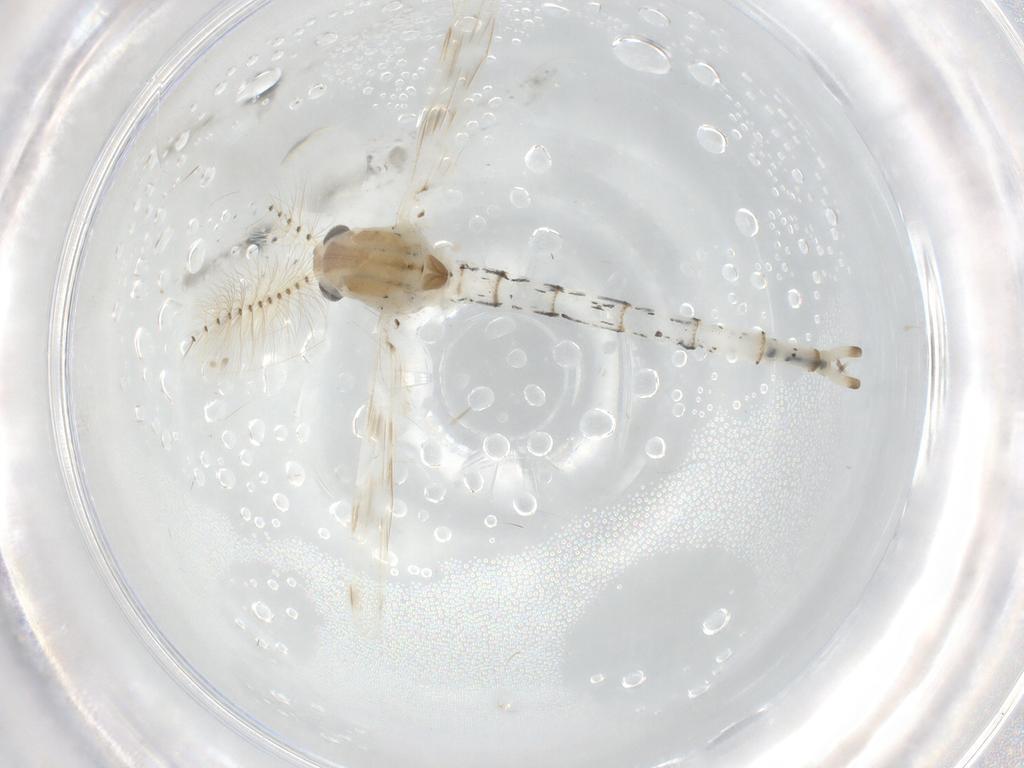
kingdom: Animalia
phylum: Arthropoda
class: Insecta
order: Diptera
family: Ephydridae
